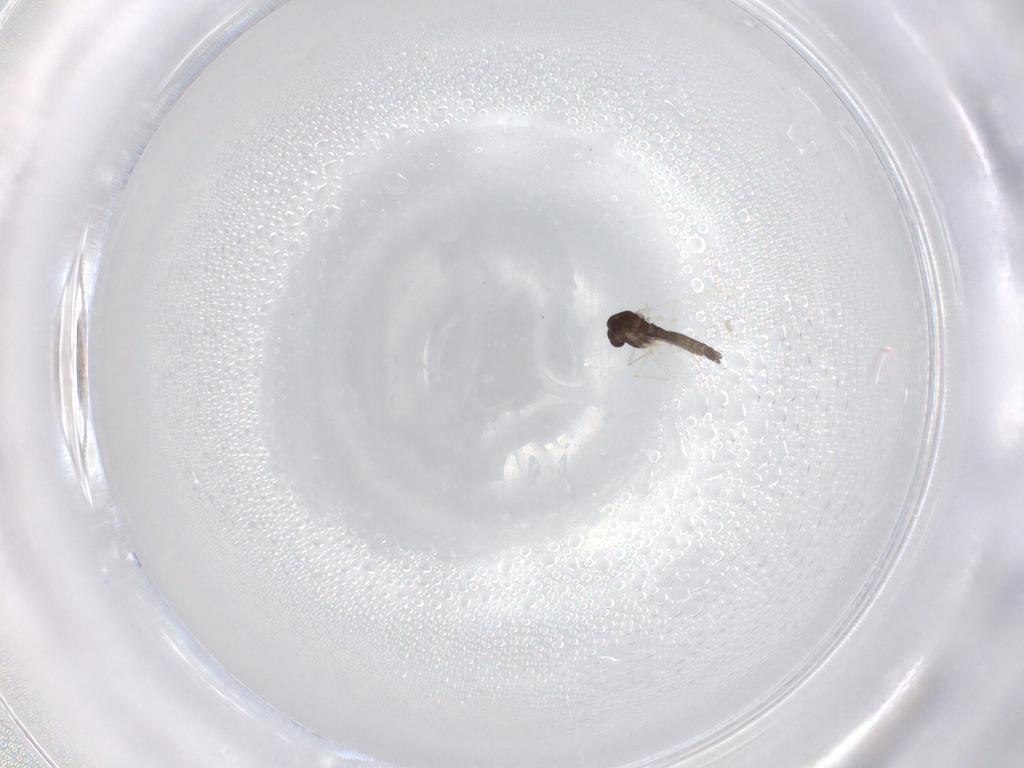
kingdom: Animalia
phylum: Arthropoda
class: Insecta
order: Diptera
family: Chironomidae
